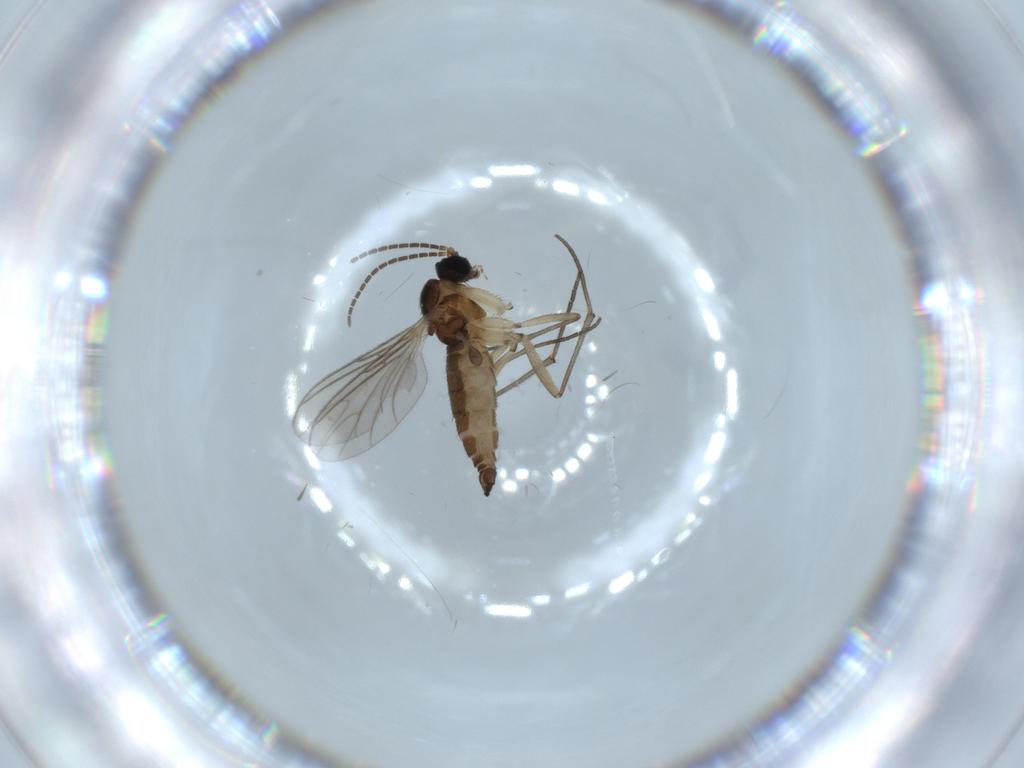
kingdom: Animalia
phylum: Arthropoda
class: Insecta
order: Diptera
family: Sciaridae
